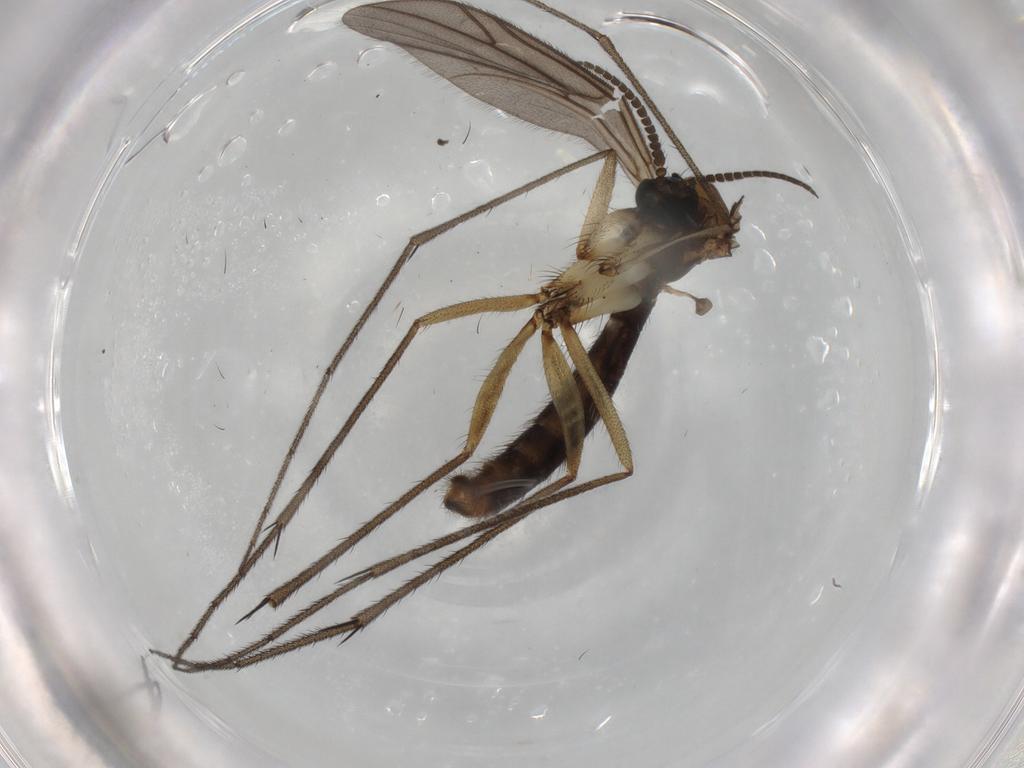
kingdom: Animalia
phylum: Arthropoda
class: Insecta
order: Diptera
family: Ditomyiidae
